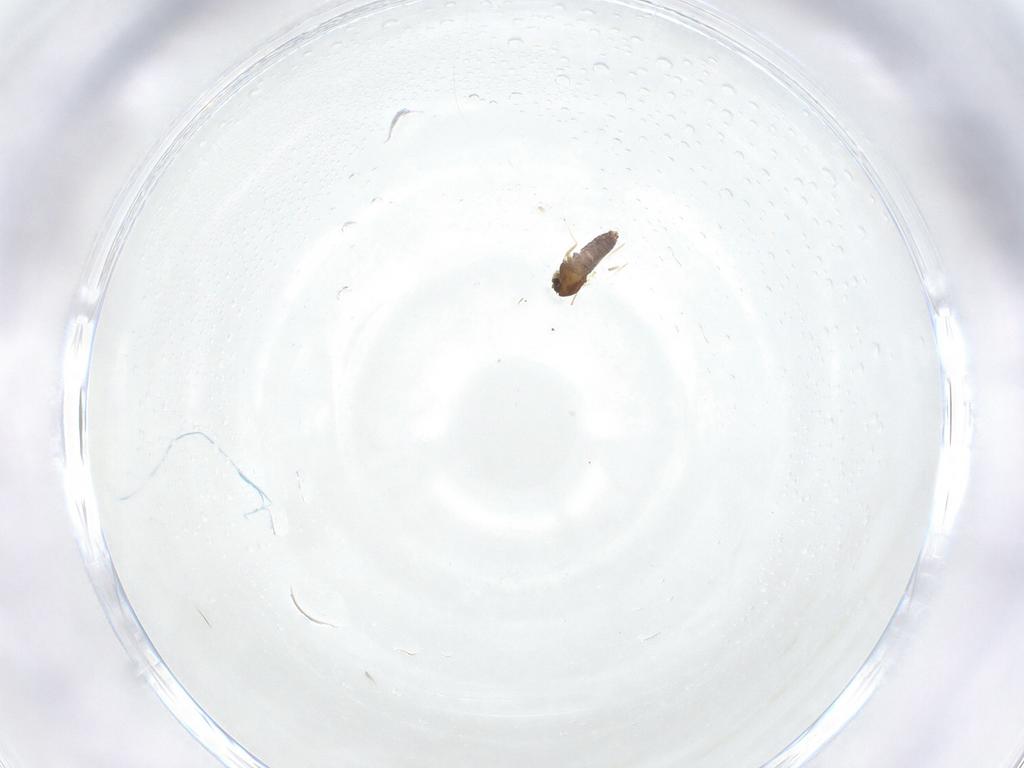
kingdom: Animalia
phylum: Arthropoda
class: Insecta
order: Diptera
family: Chironomidae
